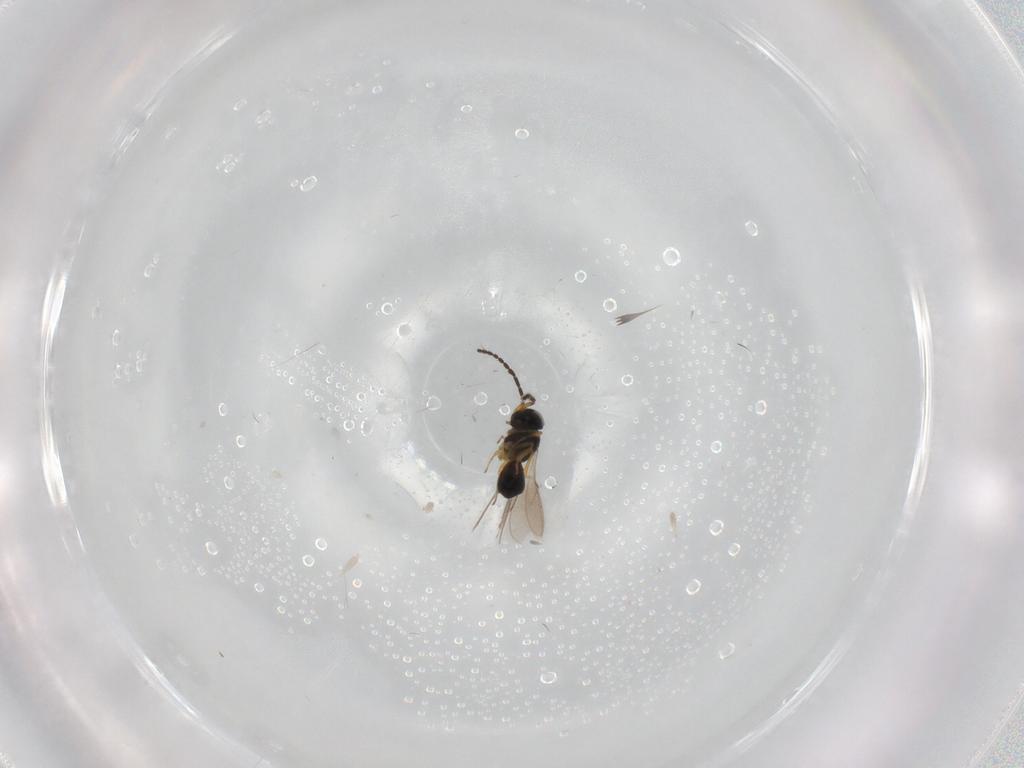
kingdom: Animalia
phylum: Arthropoda
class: Insecta
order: Hymenoptera
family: Scelionidae
